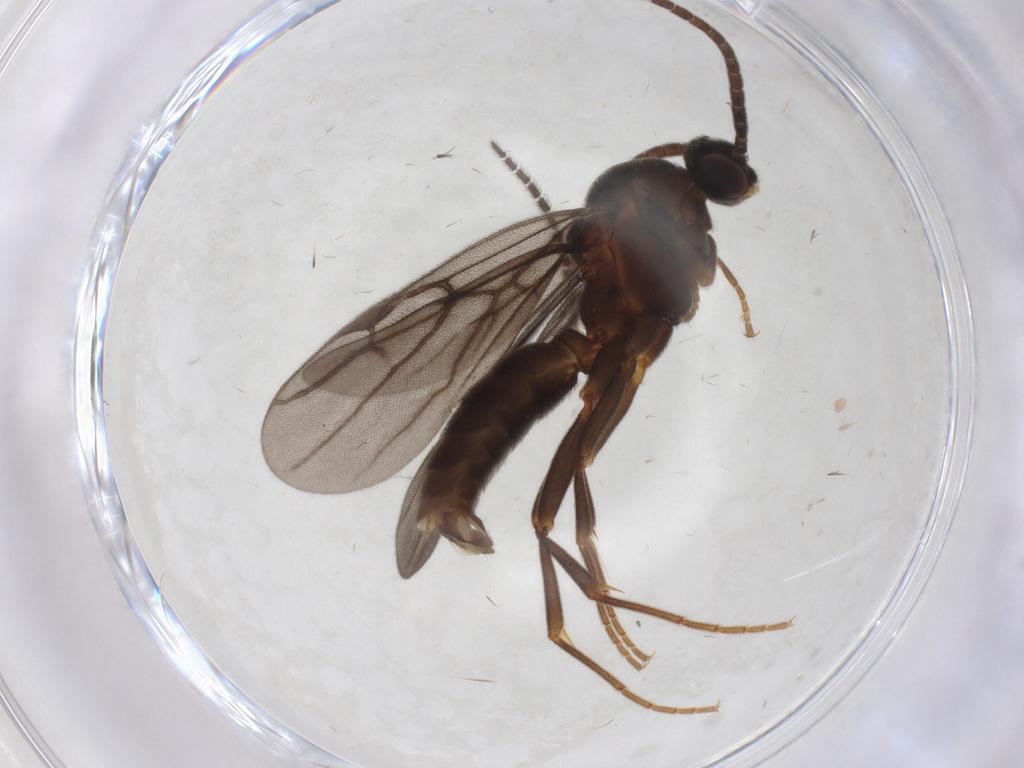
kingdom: Animalia
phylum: Arthropoda
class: Insecta
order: Hymenoptera
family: Formicidae
